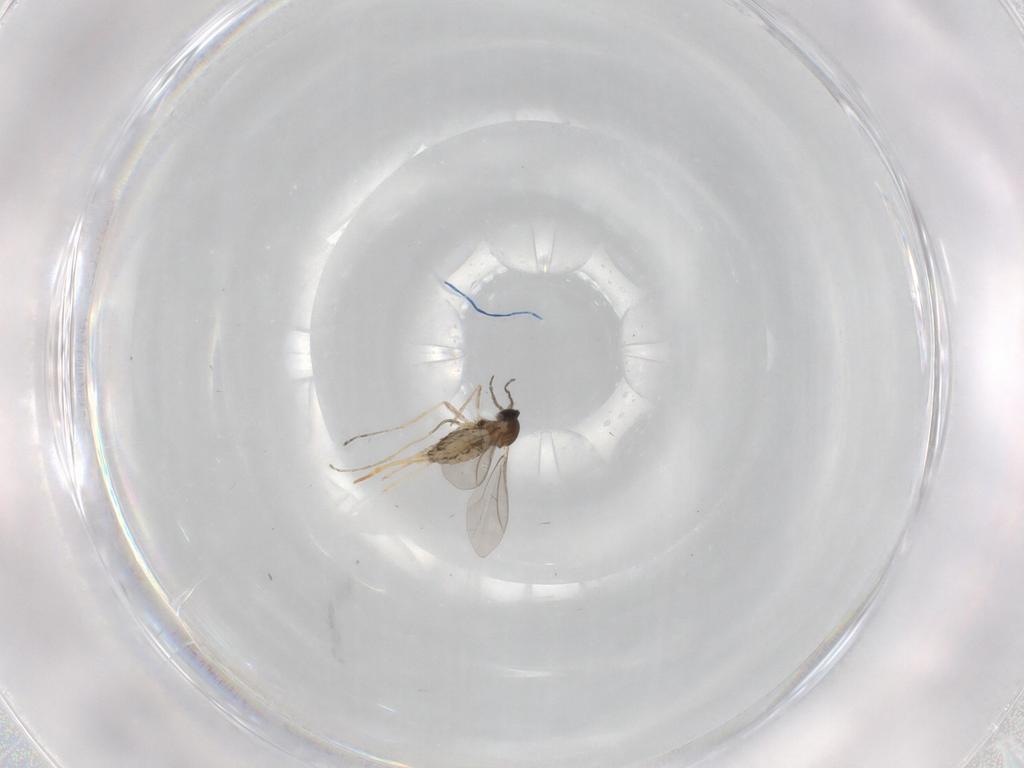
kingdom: Animalia
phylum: Arthropoda
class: Insecta
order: Diptera
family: Cecidomyiidae
